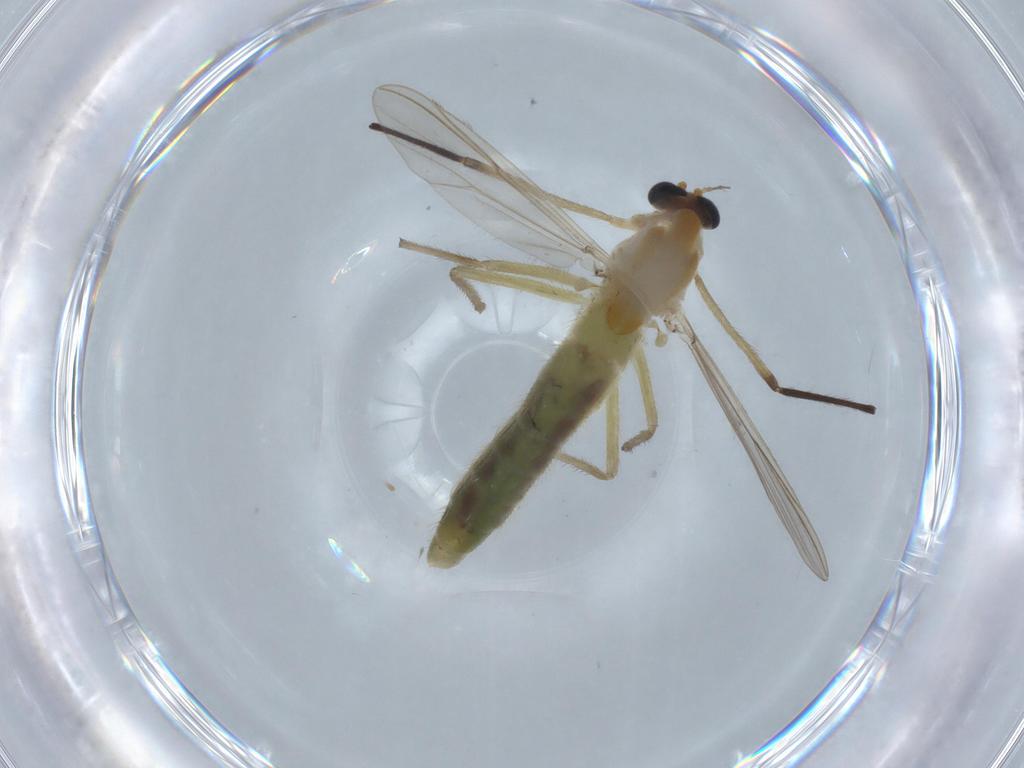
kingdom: Animalia
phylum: Arthropoda
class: Insecta
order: Diptera
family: Chironomidae
